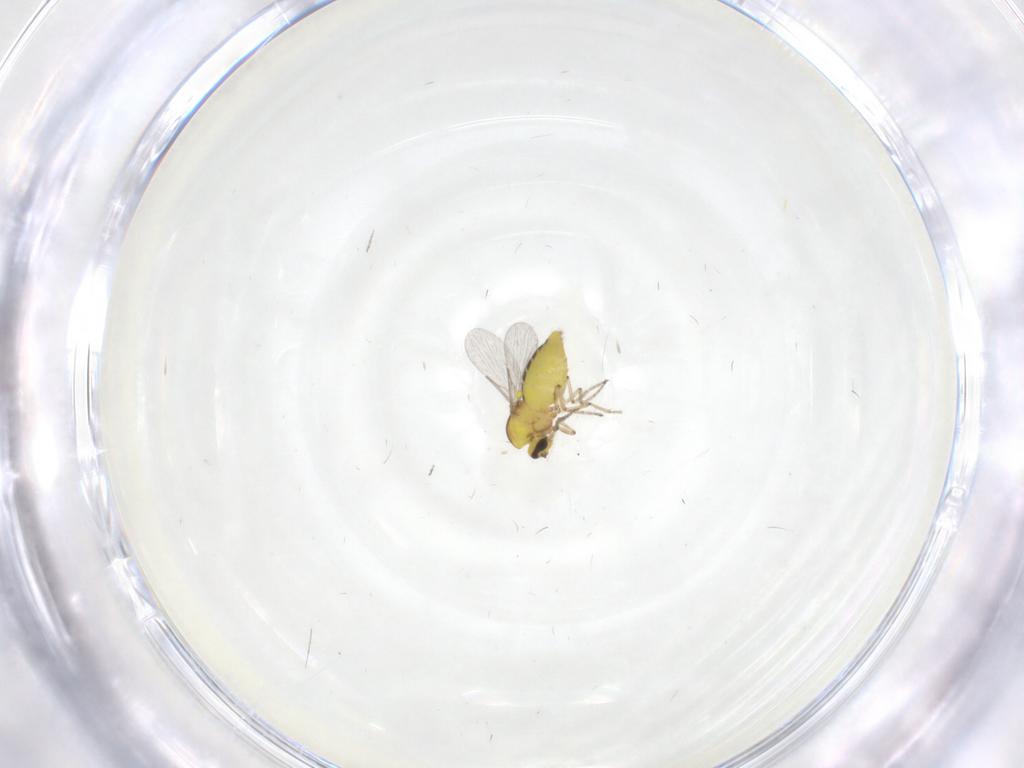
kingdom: Animalia
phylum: Arthropoda
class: Insecta
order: Diptera
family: Ceratopogonidae
